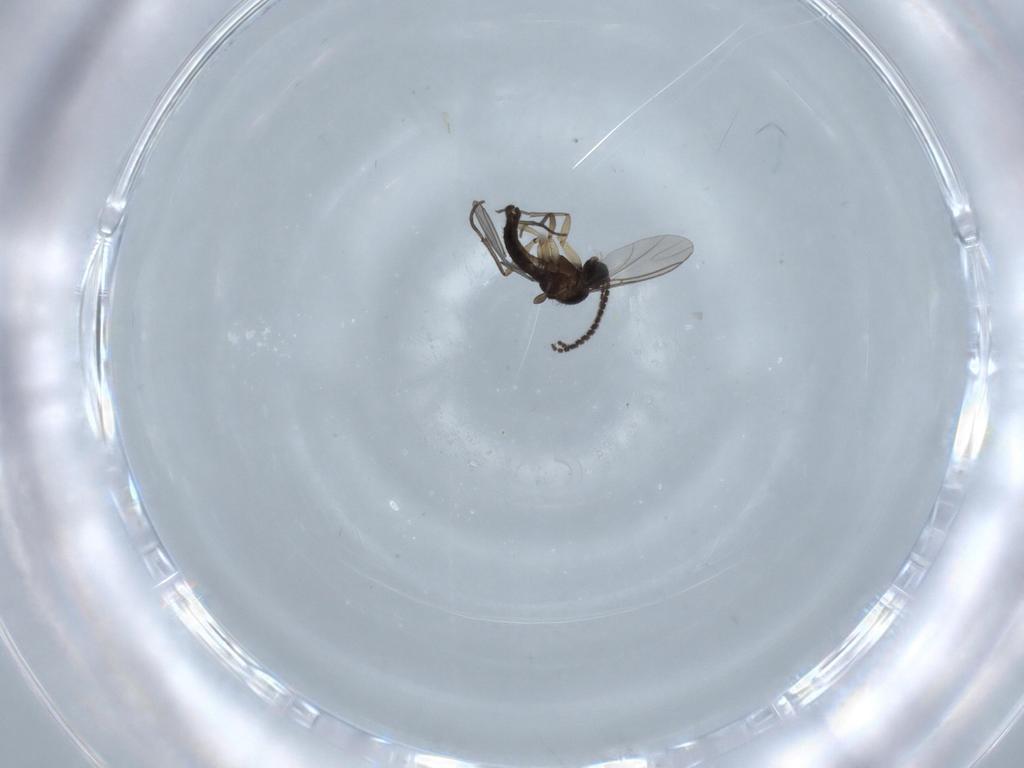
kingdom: Animalia
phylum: Arthropoda
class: Insecta
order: Diptera
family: Sciaridae
